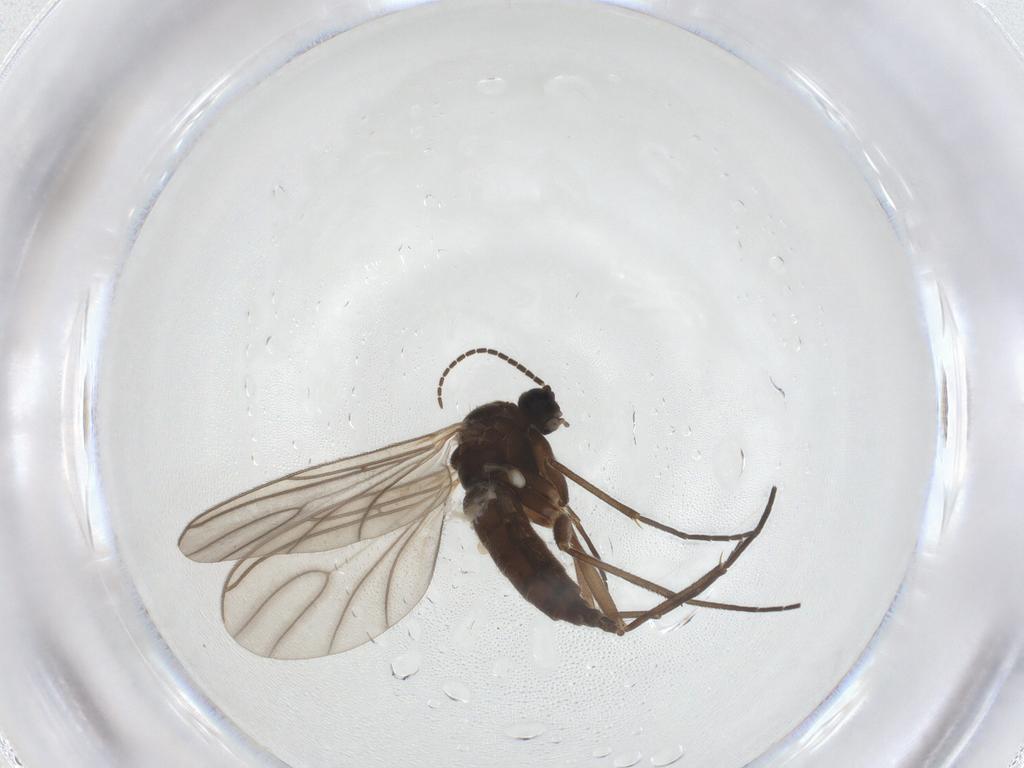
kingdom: Animalia
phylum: Arthropoda
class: Insecta
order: Diptera
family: Sciaridae
